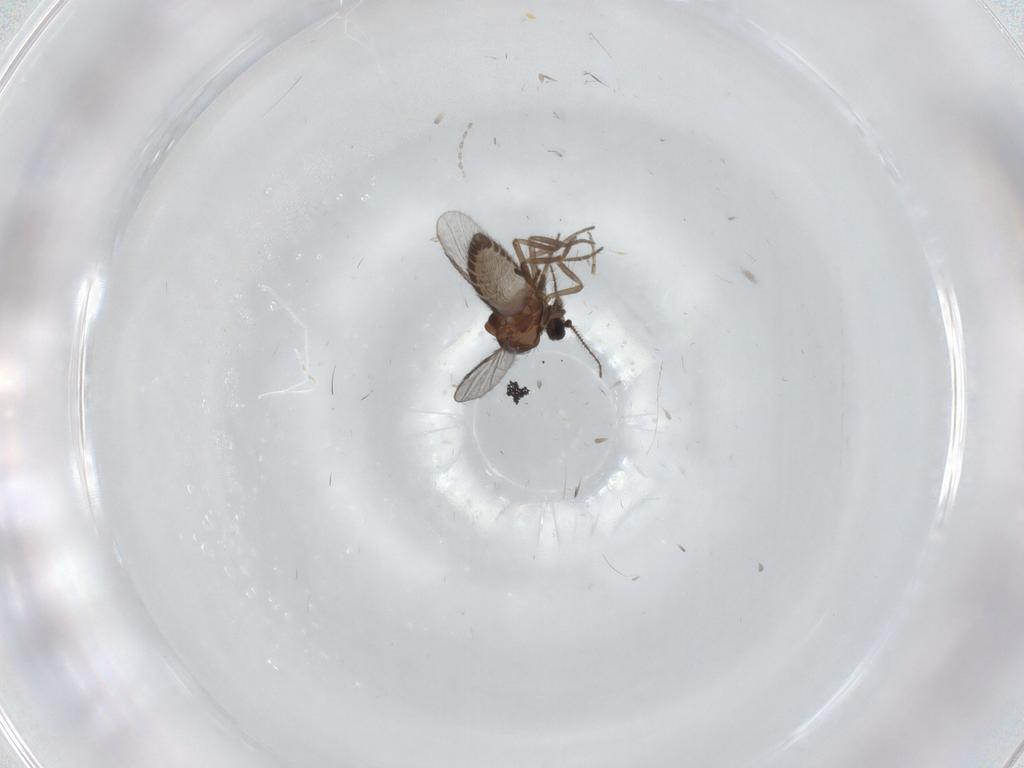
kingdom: Animalia
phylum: Arthropoda
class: Insecta
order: Diptera
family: Ceratopogonidae
